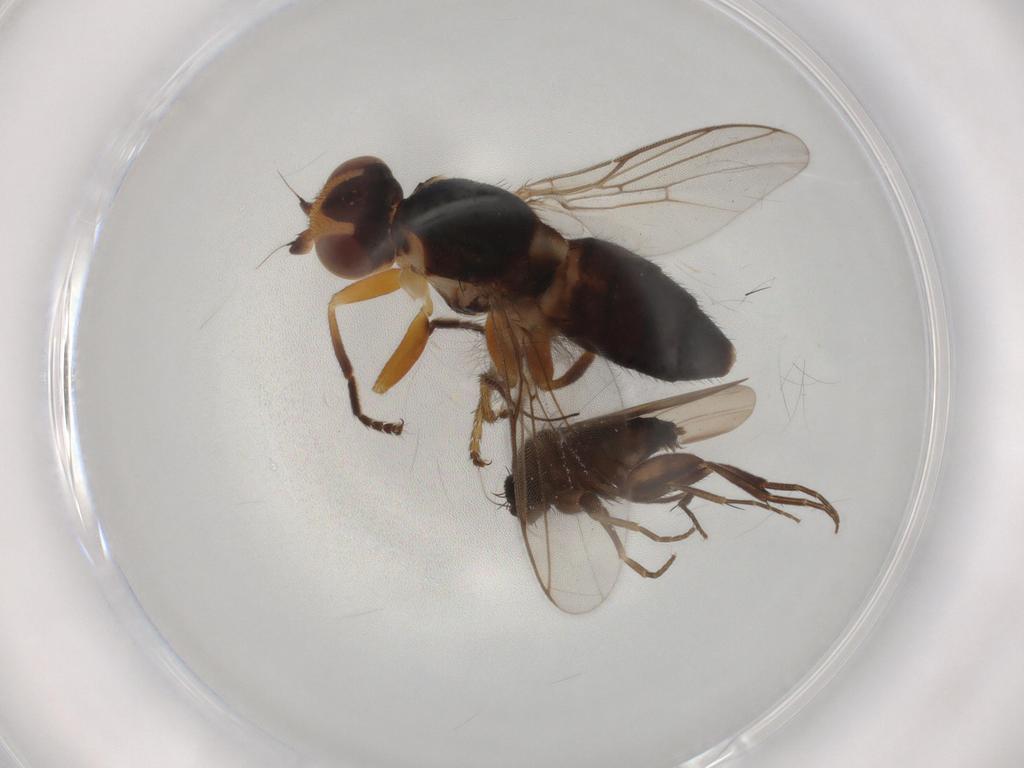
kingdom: Animalia
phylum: Arthropoda
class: Insecta
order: Diptera
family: Chloropidae
